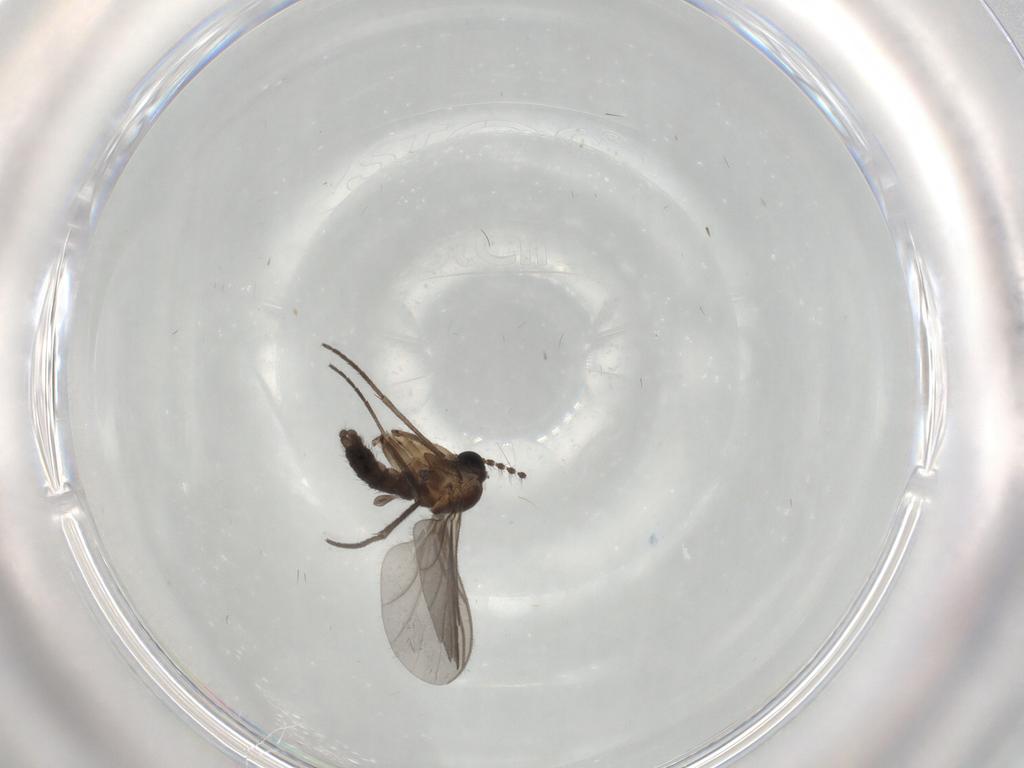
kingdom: Animalia
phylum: Arthropoda
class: Insecta
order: Diptera
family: Sciaridae
